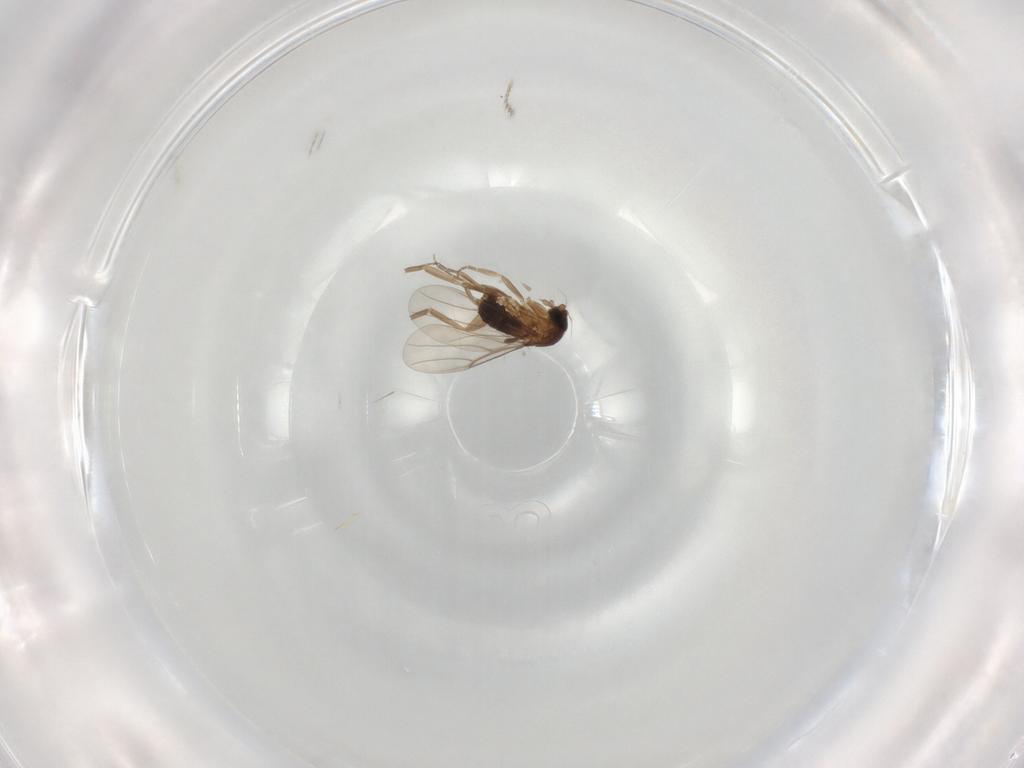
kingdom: Animalia
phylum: Arthropoda
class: Insecta
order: Diptera
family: Phoridae
